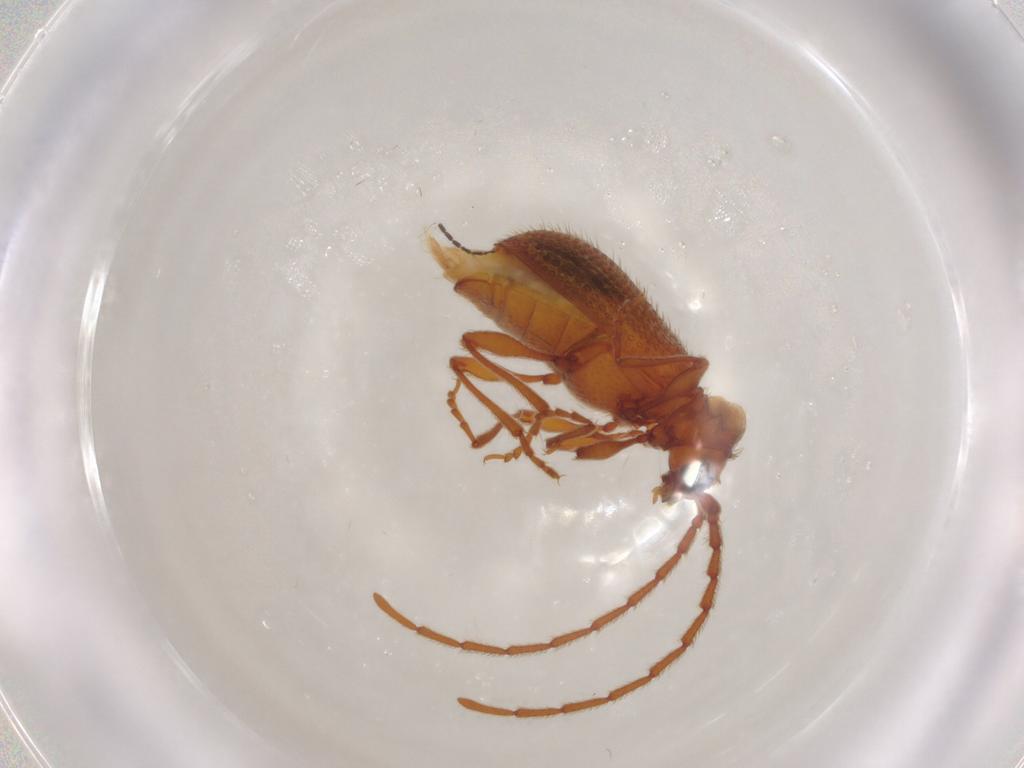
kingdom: Animalia
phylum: Arthropoda
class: Insecta
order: Coleoptera
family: Ptinidae
